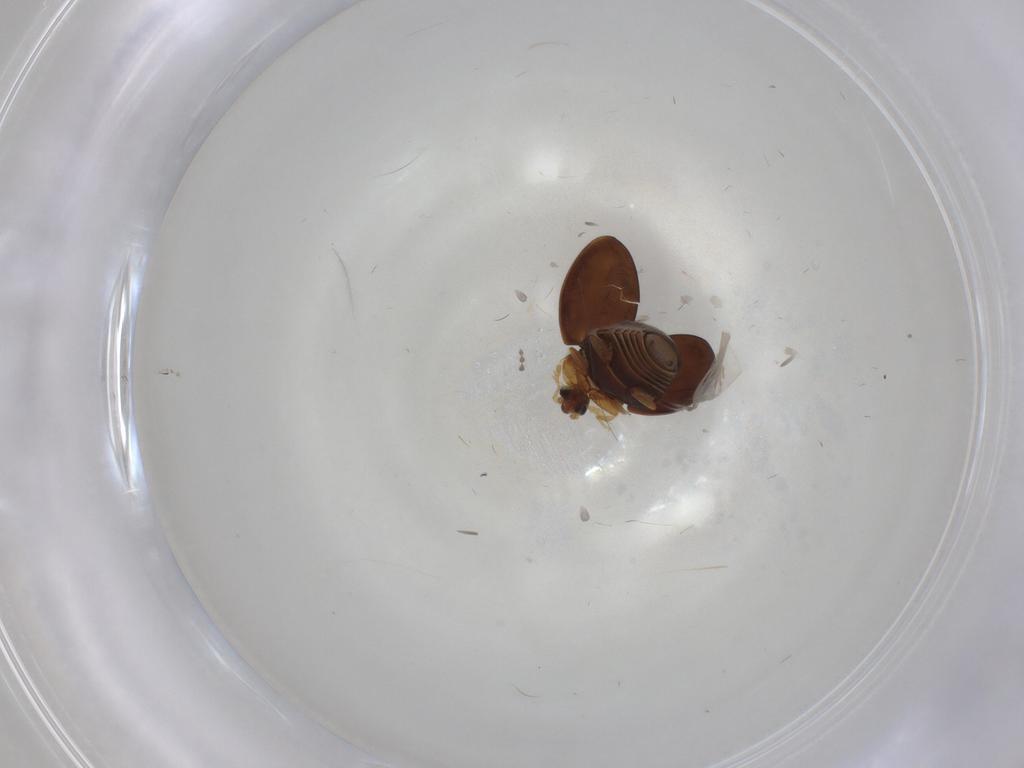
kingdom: Animalia
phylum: Arthropoda
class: Insecta
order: Coleoptera
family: Corylophidae
